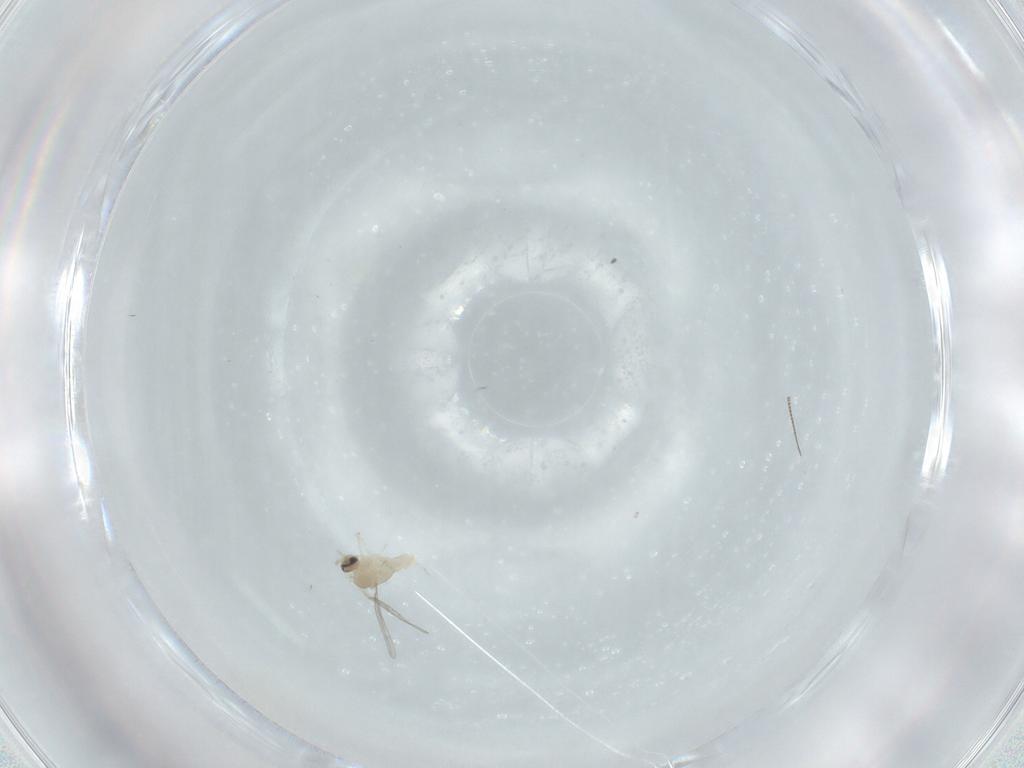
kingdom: Animalia
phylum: Arthropoda
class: Insecta
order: Diptera
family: Cecidomyiidae
